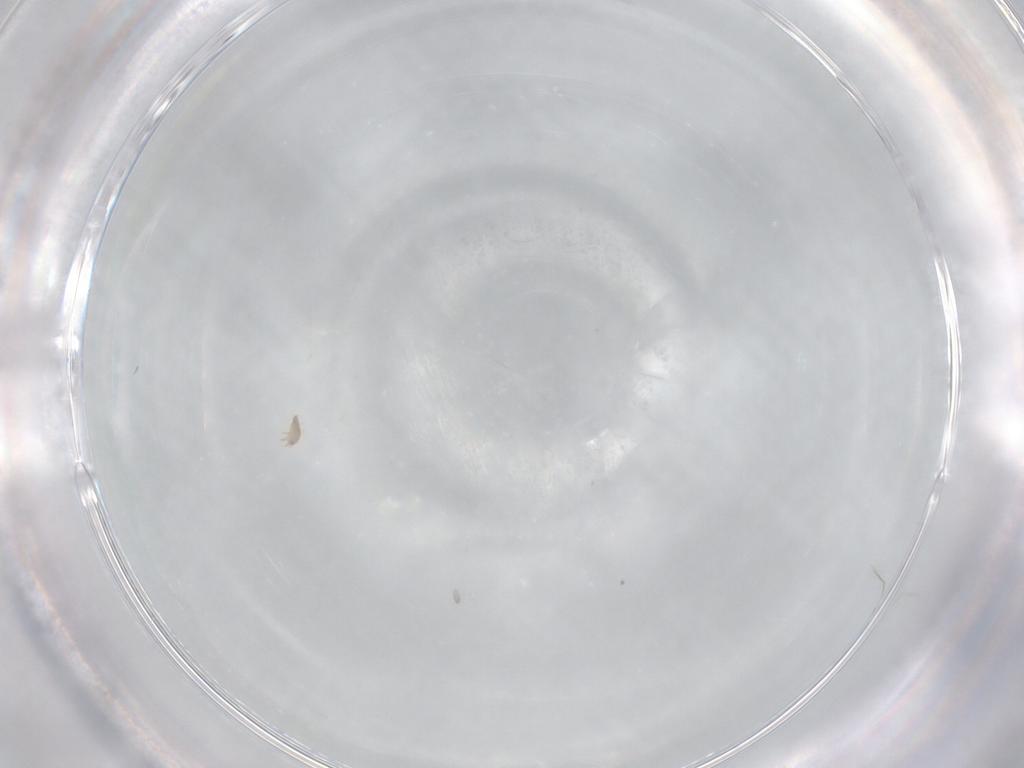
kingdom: Animalia
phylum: Arthropoda
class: Arachnida
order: Trombidiformes
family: Anystidae
